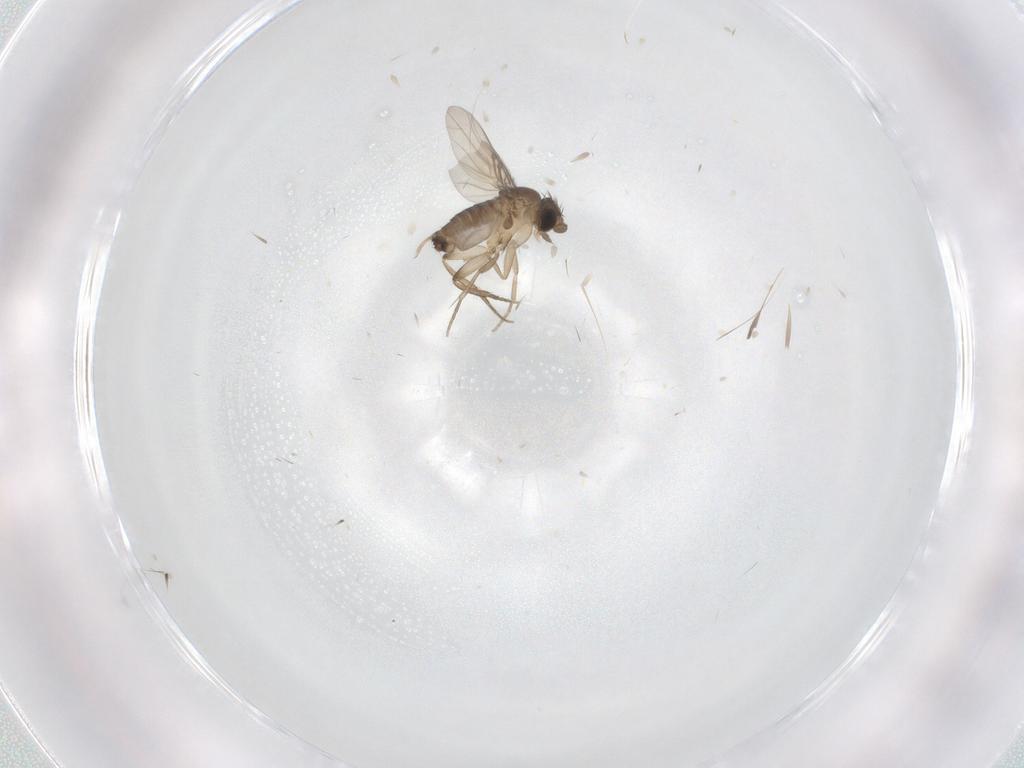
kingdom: Animalia
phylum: Arthropoda
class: Insecta
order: Diptera
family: Phoridae
